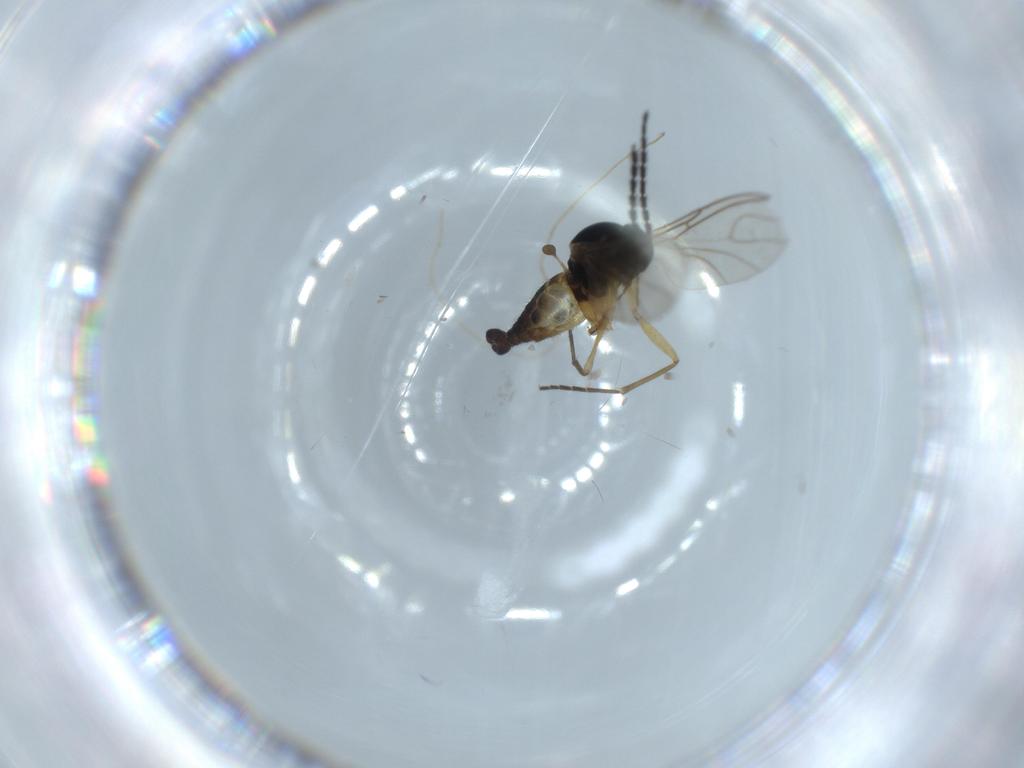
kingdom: Animalia
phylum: Arthropoda
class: Insecta
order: Diptera
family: Sciaridae
